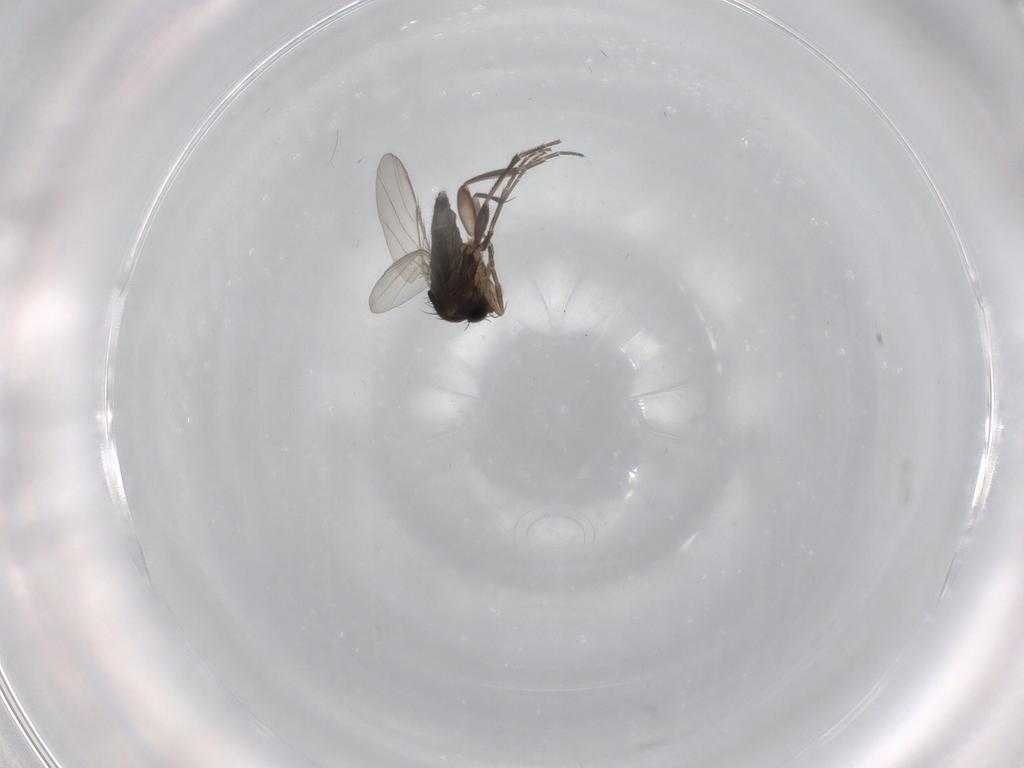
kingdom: Animalia
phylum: Arthropoda
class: Insecta
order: Diptera
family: Phoridae
